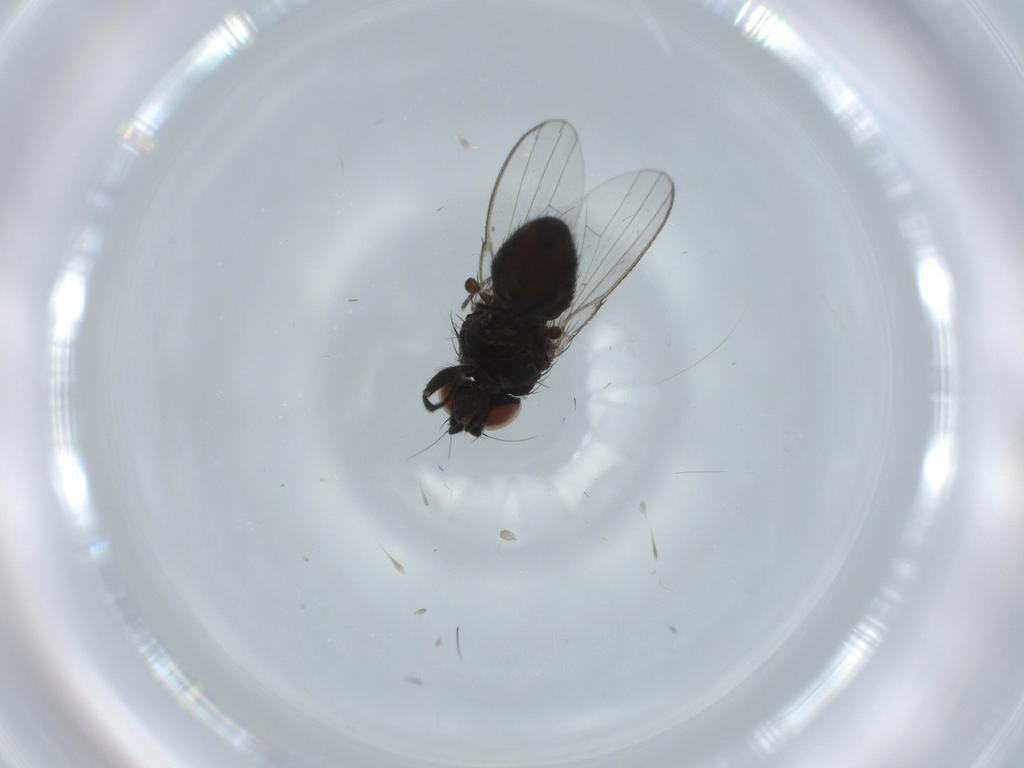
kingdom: Animalia
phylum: Arthropoda
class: Insecta
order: Diptera
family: Milichiidae
